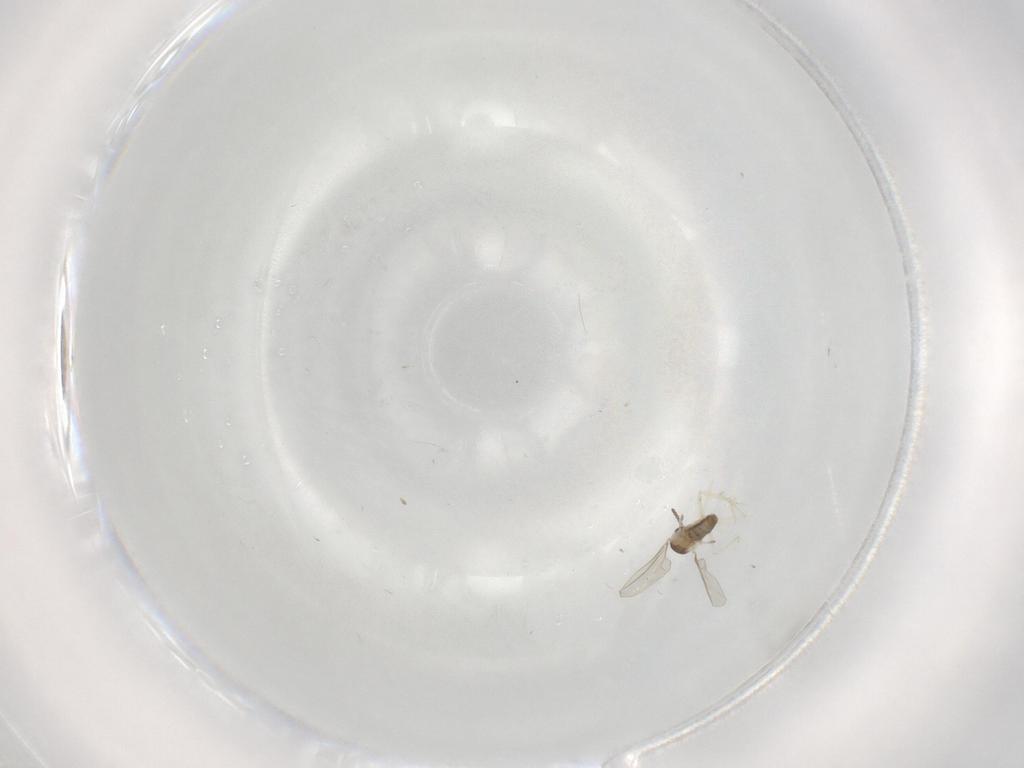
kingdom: Animalia
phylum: Arthropoda
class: Insecta
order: Diptera
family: Cecidomyiidae
